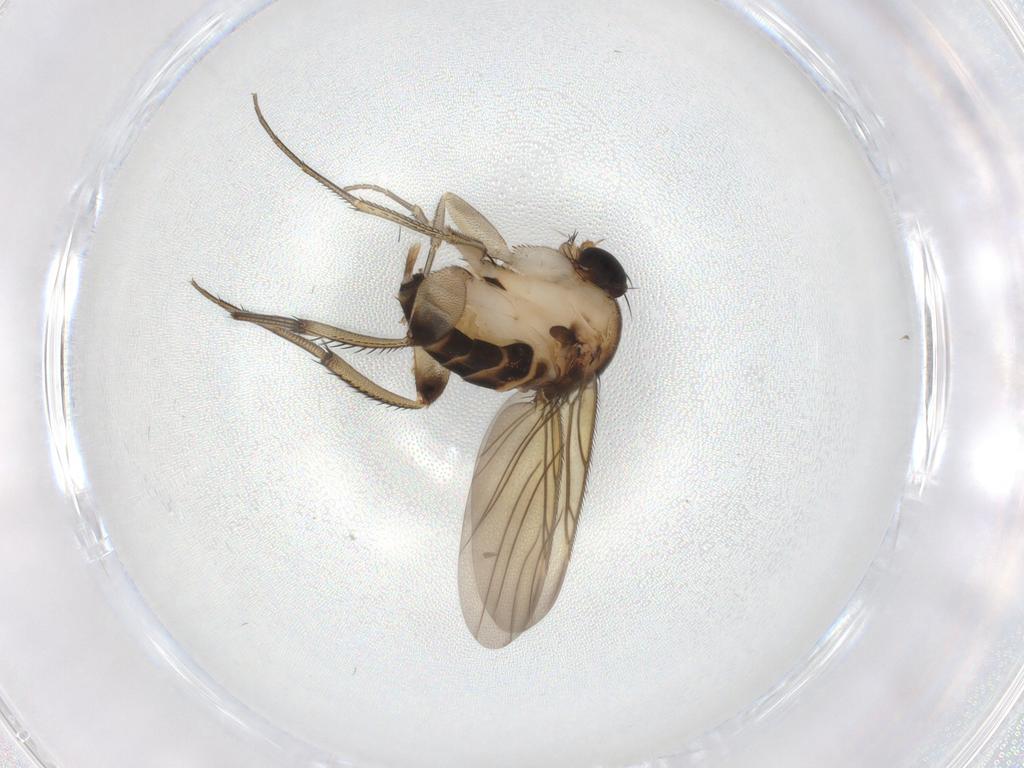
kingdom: Animalia
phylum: Arthropoda
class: Insecta
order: Diptera
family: Phoridae
